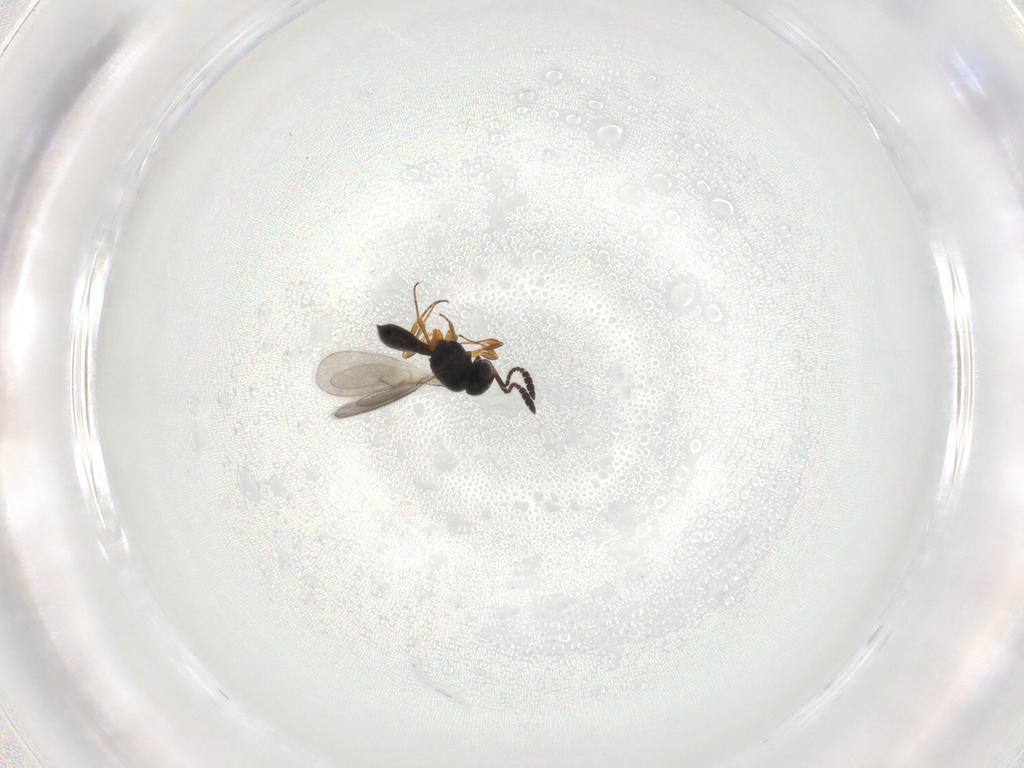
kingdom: Animalia
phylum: Arthropoda
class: Insecta
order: Hymenoptera
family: Scelionidae
